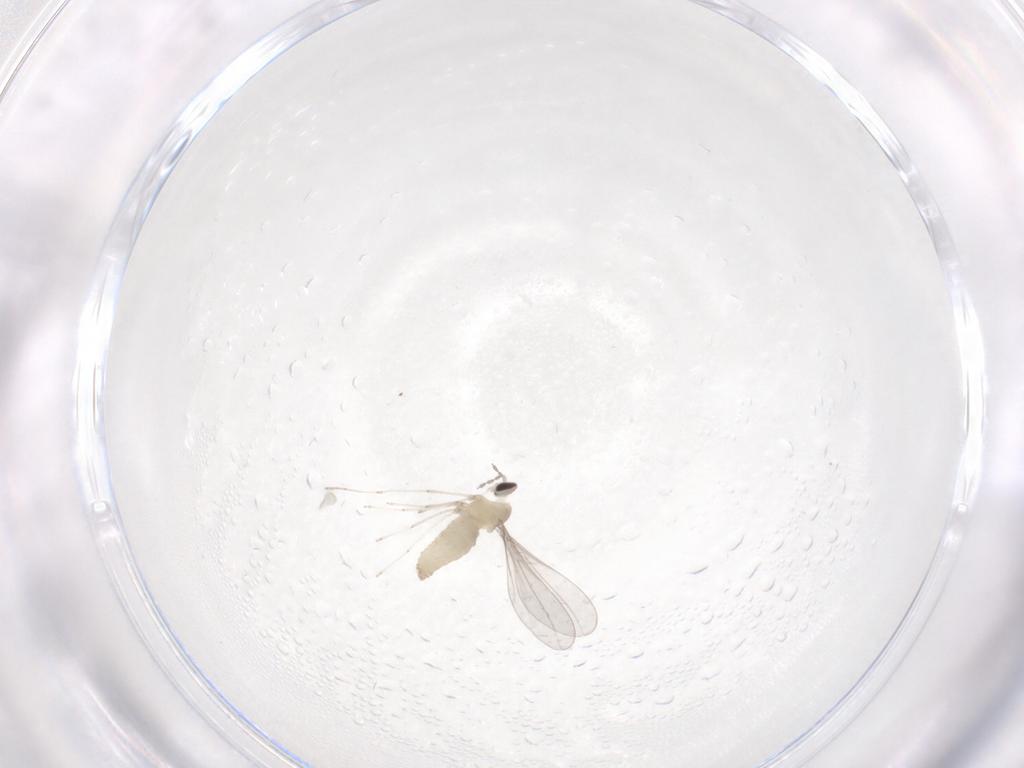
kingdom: Animalia
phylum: Arthropoda
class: Insecta
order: Diptera
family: Cecidomyiidae
